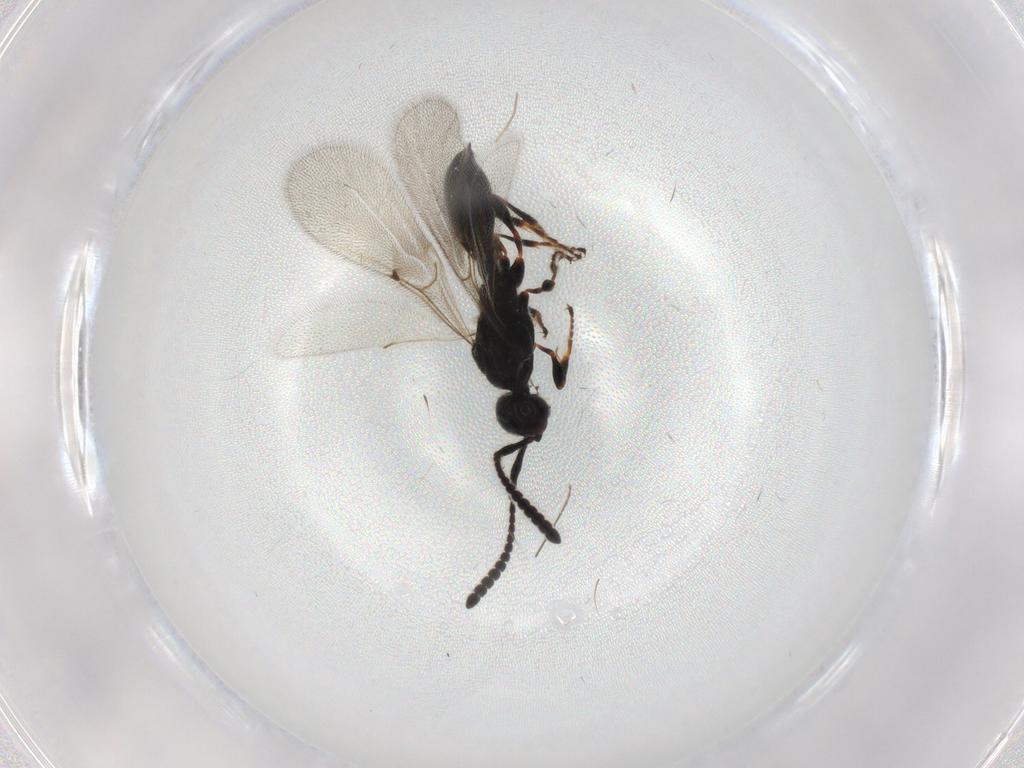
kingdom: Animalia
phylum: Arthropoda
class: Insecta
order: Hymenoptera
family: Diapriidae
